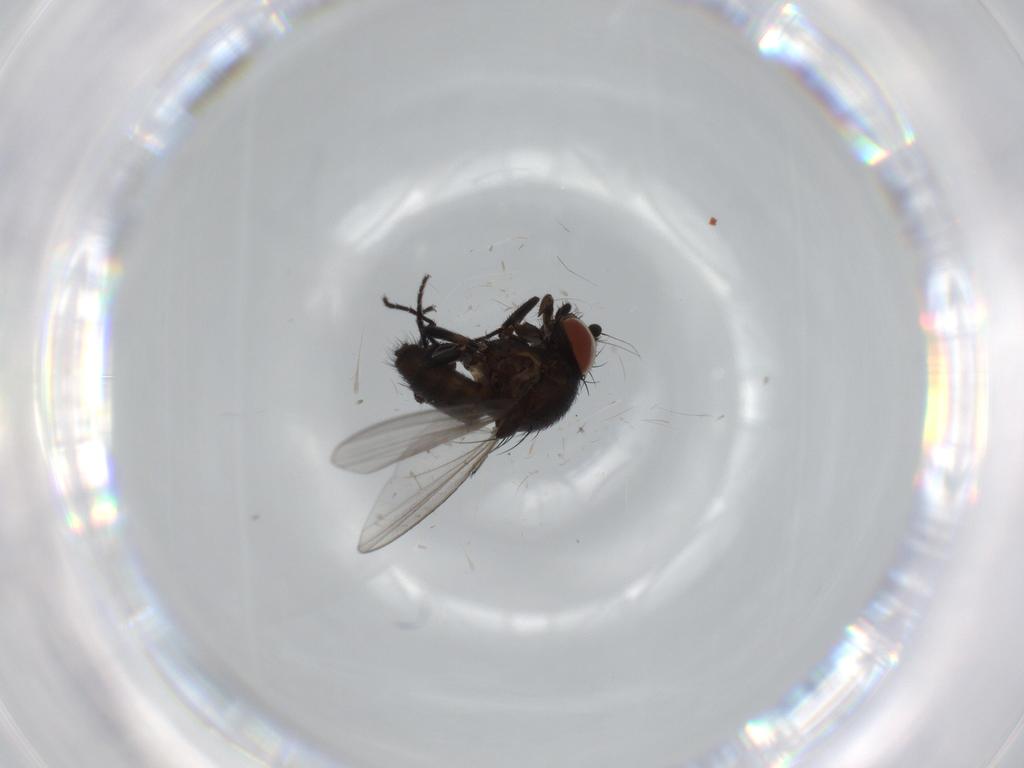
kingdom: Animalia
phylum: Arthropoda
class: Insecta
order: Diptera
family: Milichiidae
